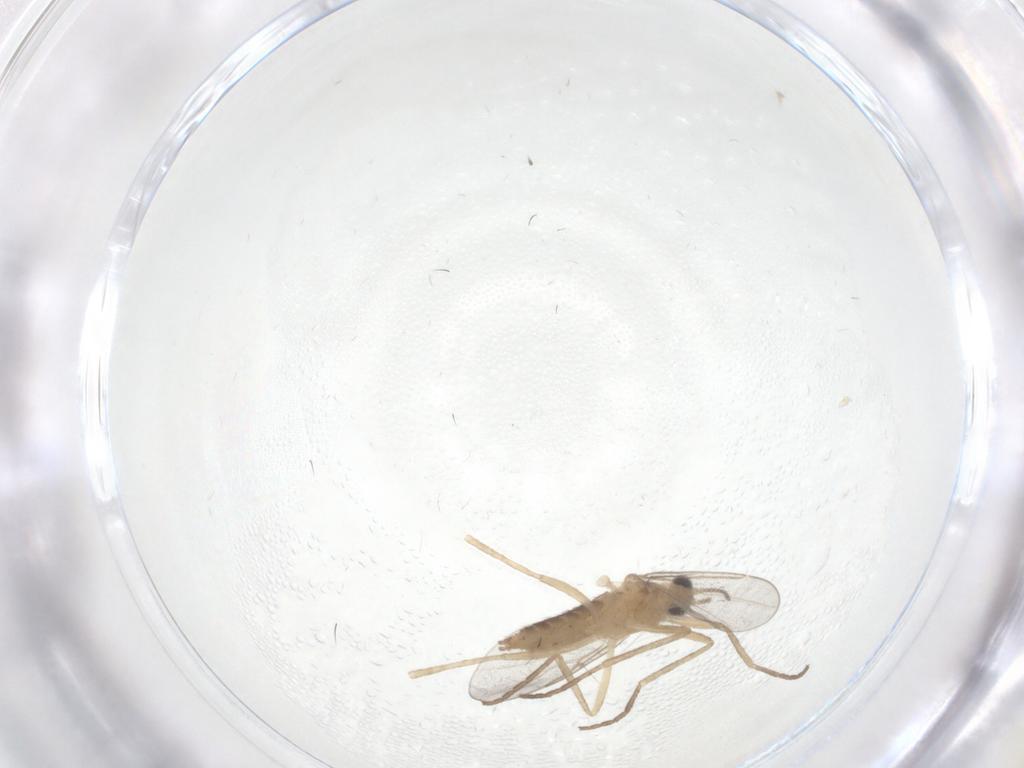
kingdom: Animalia
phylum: Arthropoda
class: Insecta
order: Diptera
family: Cecidomyiidae
